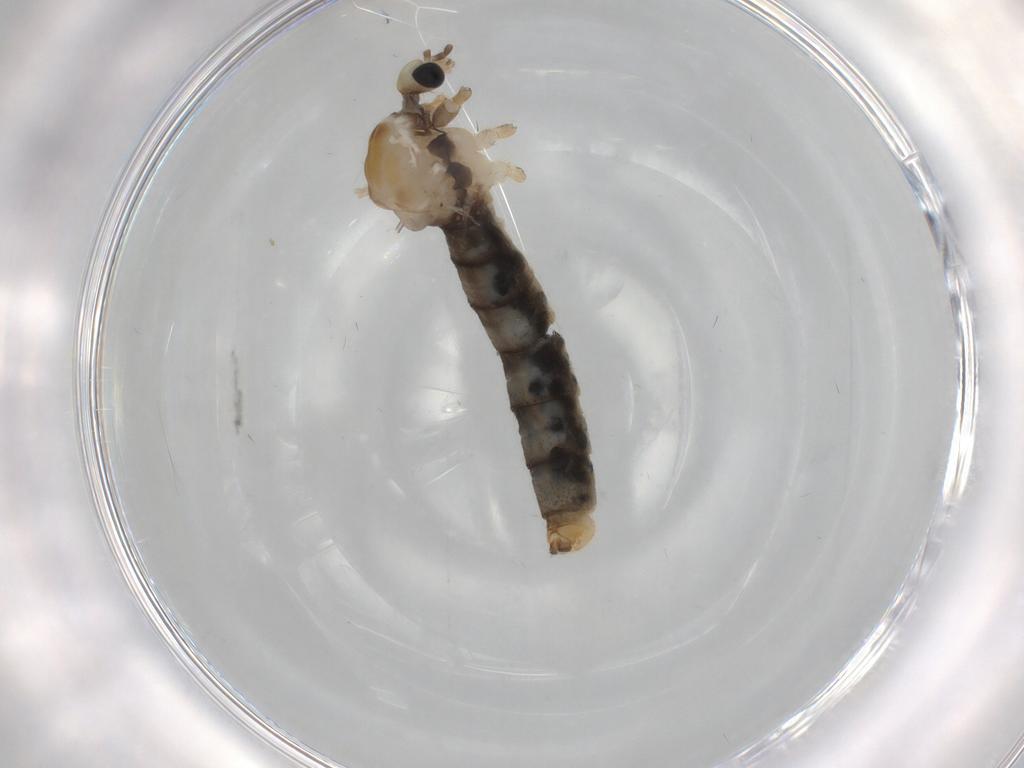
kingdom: Animalia
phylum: Arthropoda
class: Insecta
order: Diptera
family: Limoniidae
